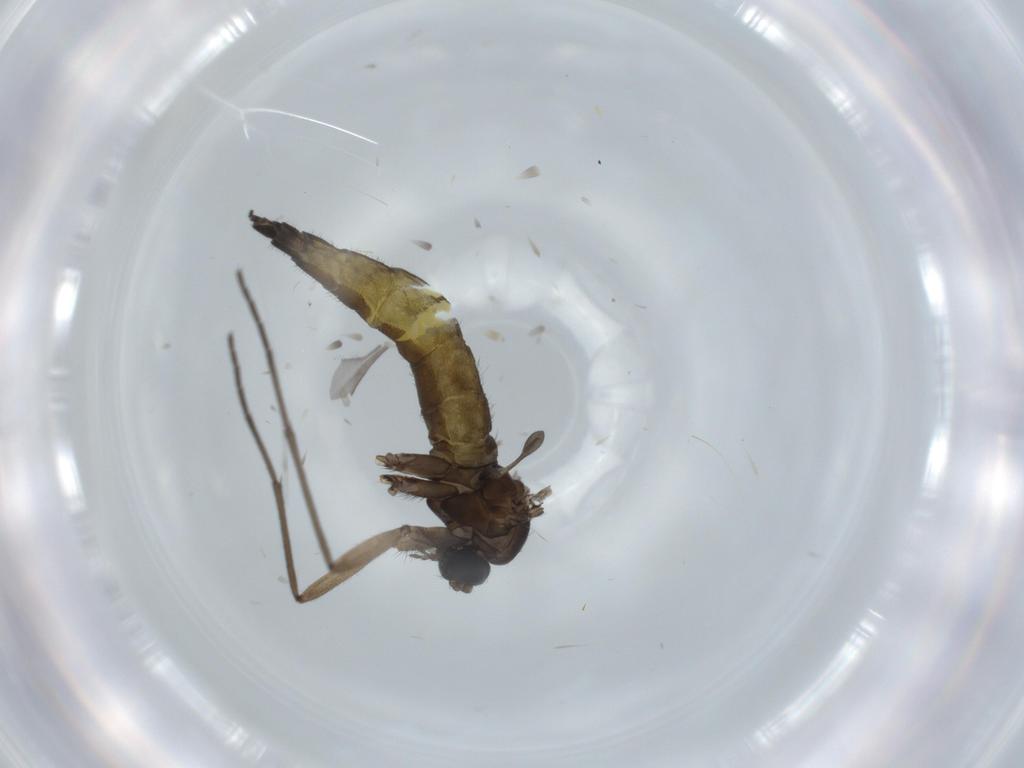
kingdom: Animalia
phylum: Arthropoda
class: Insecta
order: Diptera
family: Sciaridae
